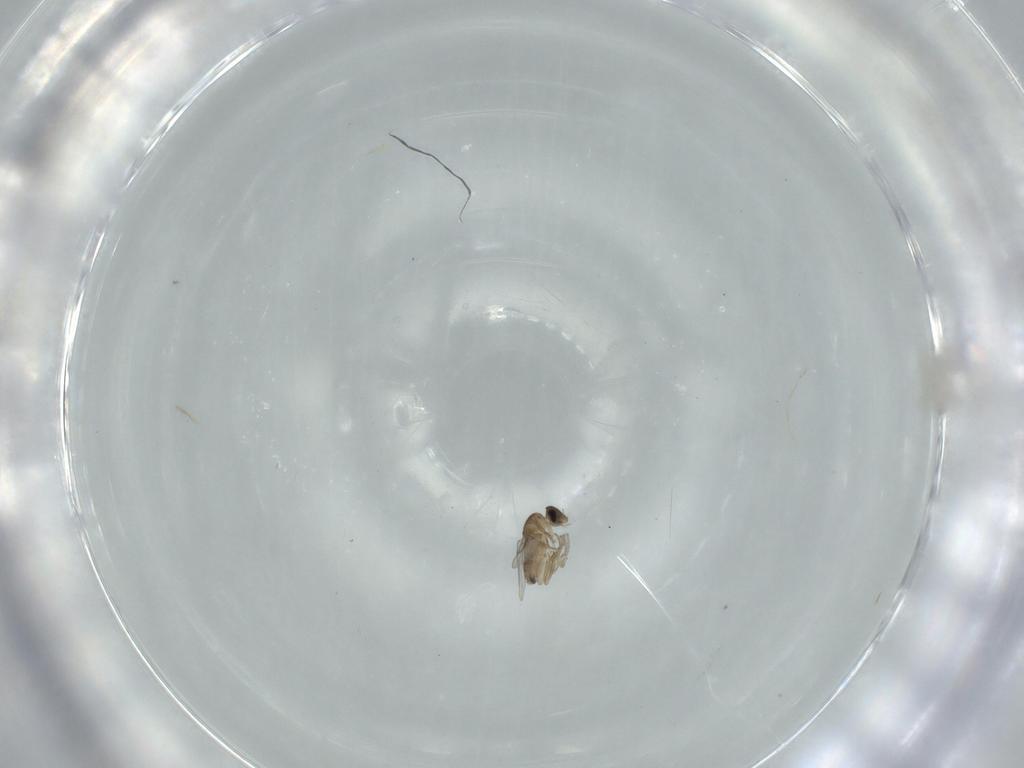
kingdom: Animalia
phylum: Arthropoda
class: Insecta
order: Diptera
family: Cecidomyiidae
